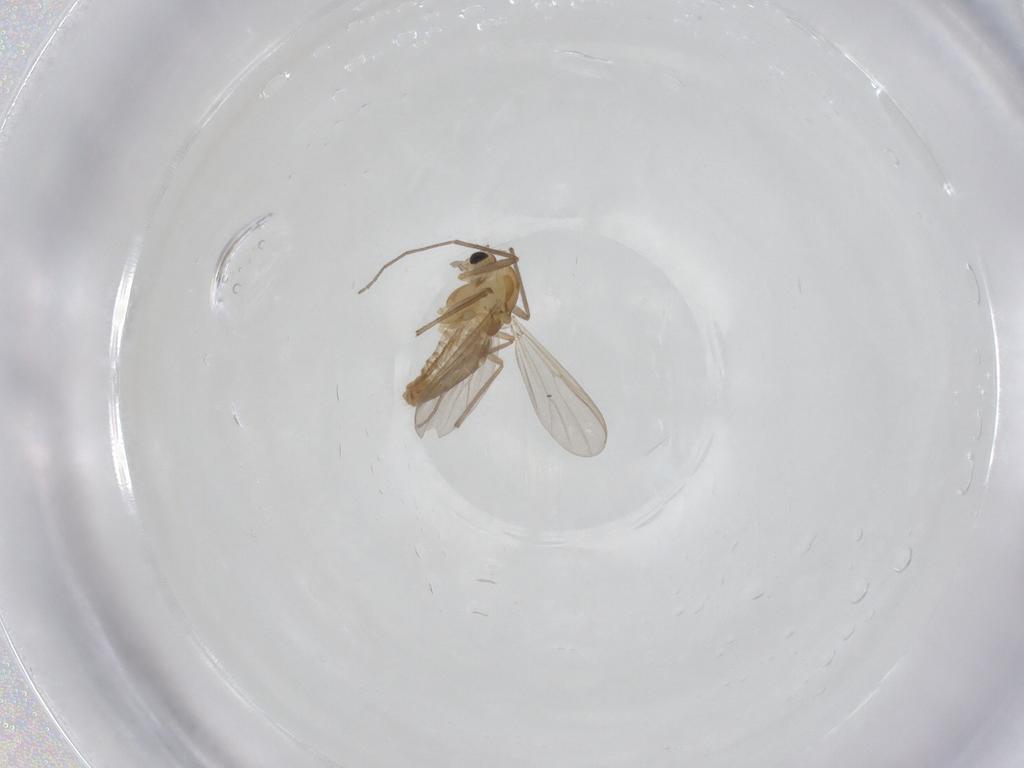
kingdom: Animalia
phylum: Arthropoda
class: Insecta
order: Diptera
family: Chironomidae
